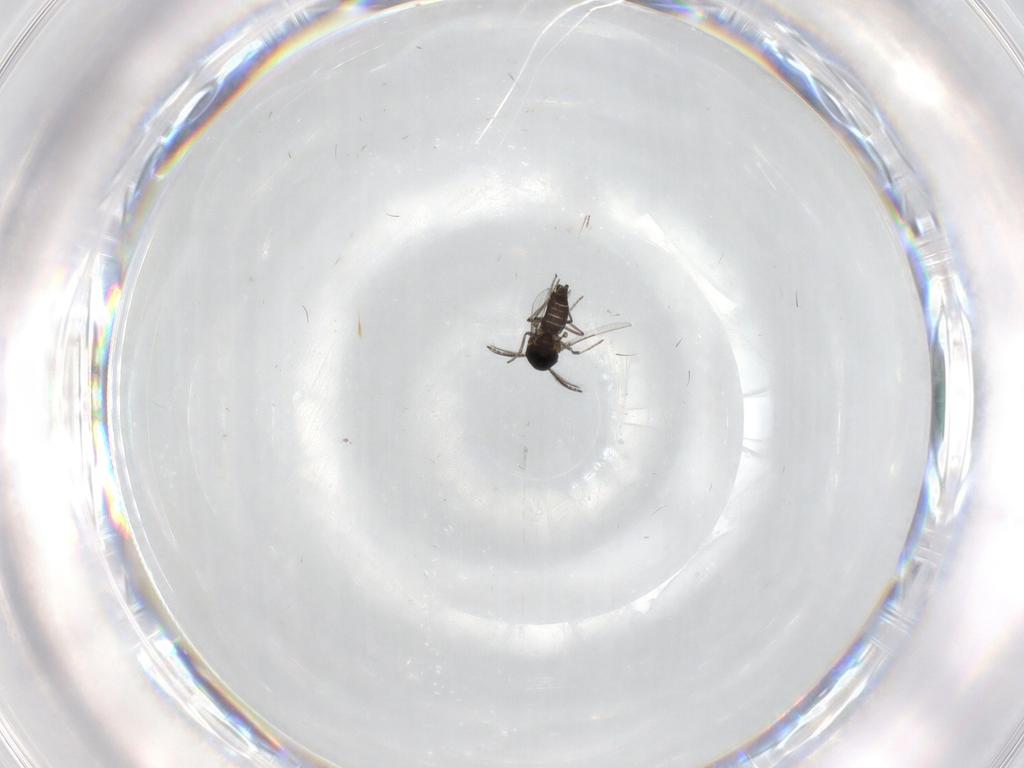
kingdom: Animalia
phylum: Arthropoda
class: Insecta
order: Diptera
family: Ceratopogonidae
